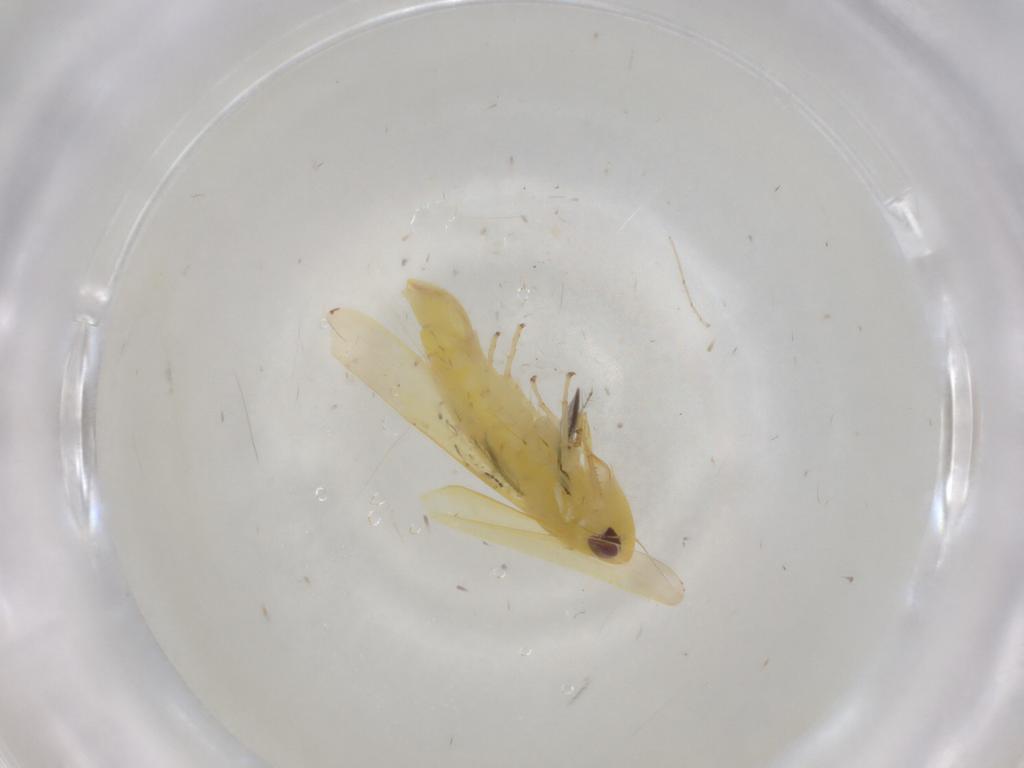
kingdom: Animalia
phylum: Arthropoda
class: Insecta
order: Hemiptera
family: Cicadellidae
